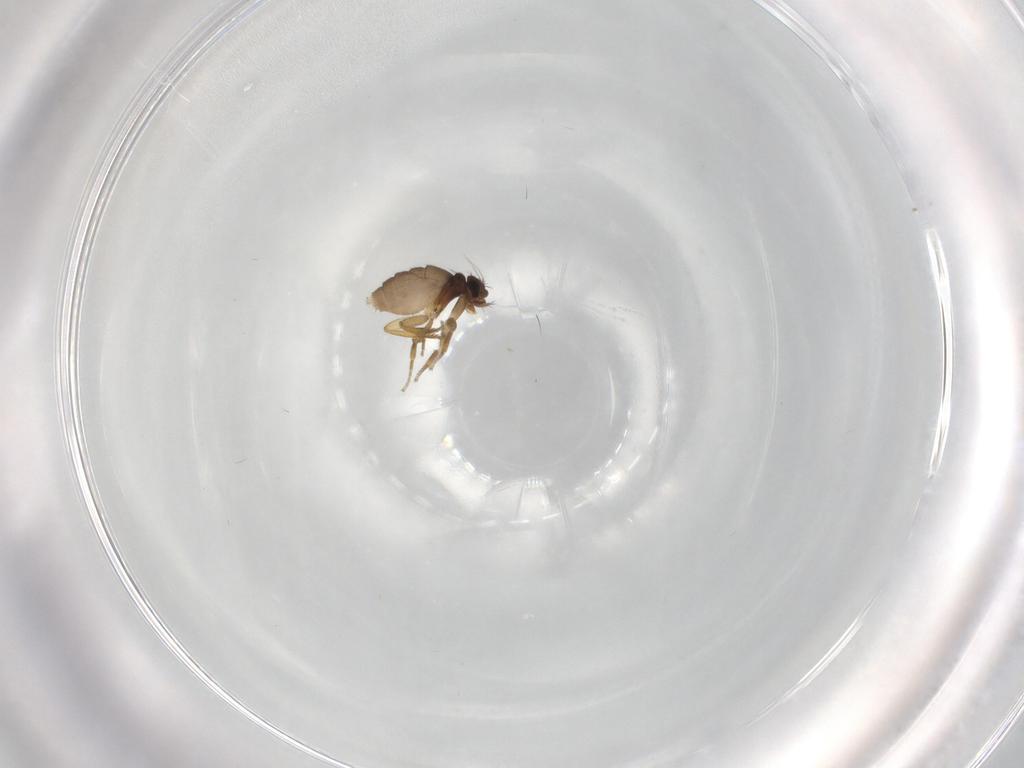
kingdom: Animalia
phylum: Arthropoda
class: Insecta
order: Diptera
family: Phoridae
